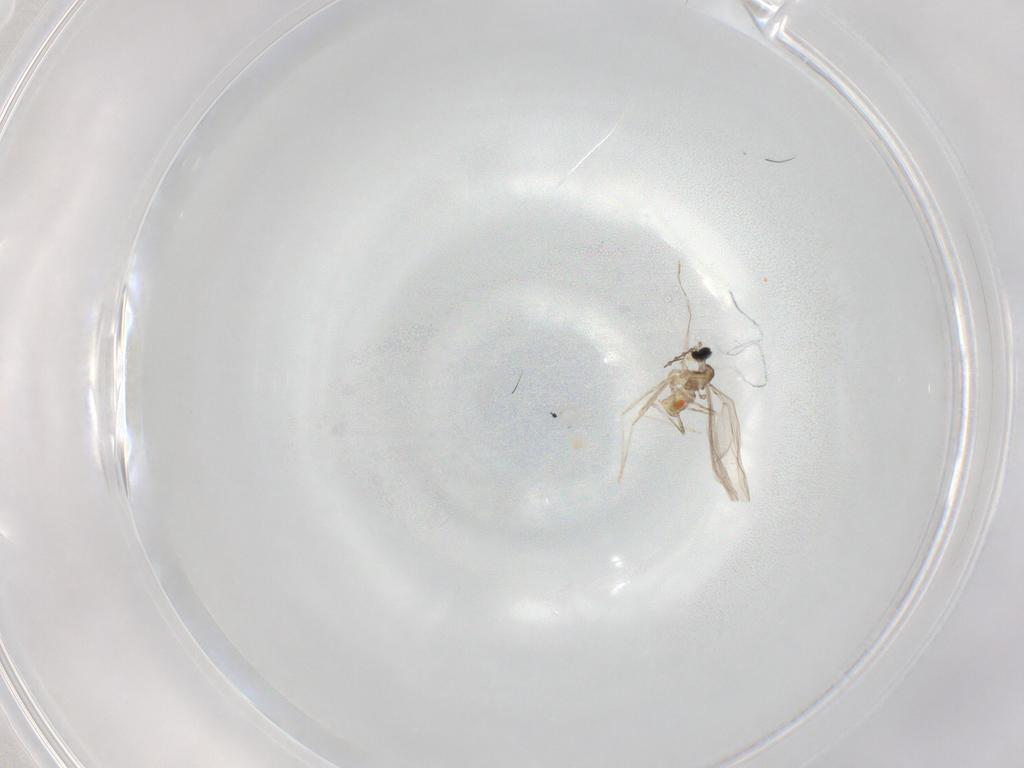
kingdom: Animalia
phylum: Arthropoda
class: Insecta
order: Diptera
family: Cecidomyiidae
